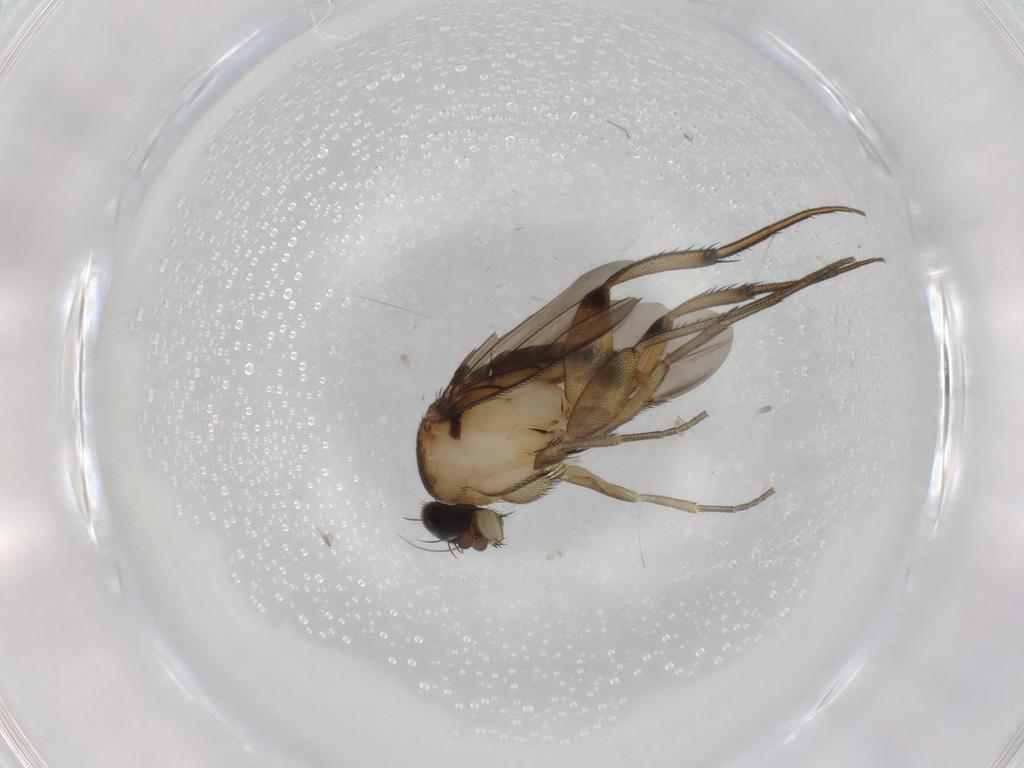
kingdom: Animalia
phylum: Arthropoda
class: Insecta
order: Diptera
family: Phoridae
